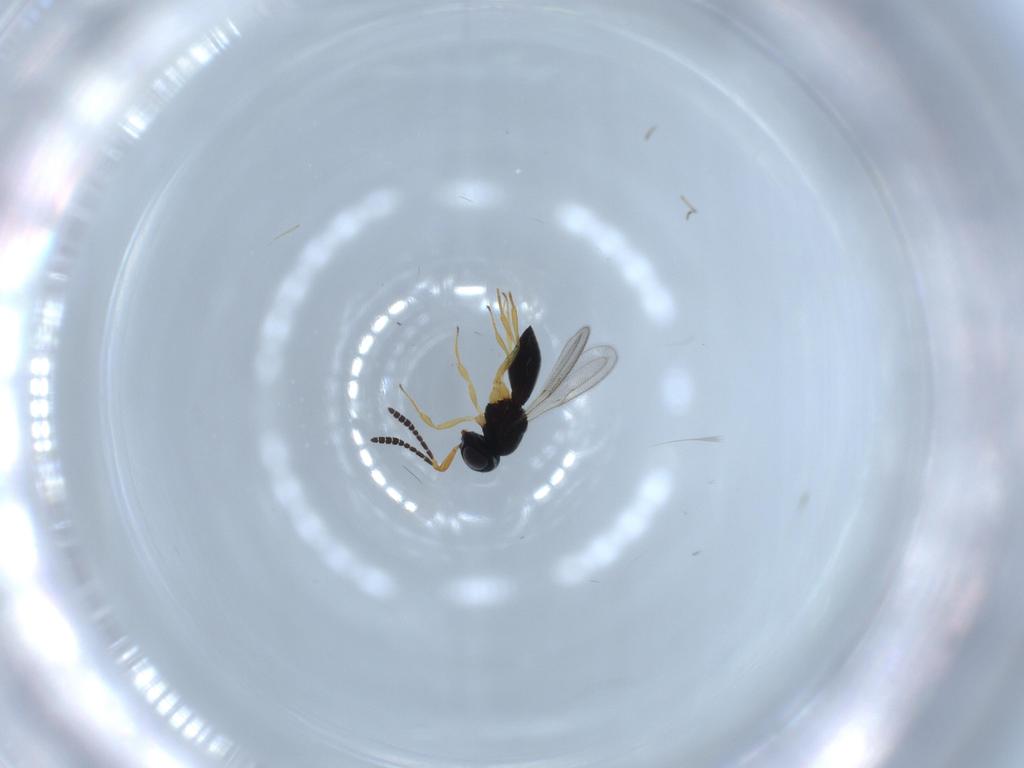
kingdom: Animalia
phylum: Arthropoda
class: Insecta
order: Hymenoptera
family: Scelionidae
